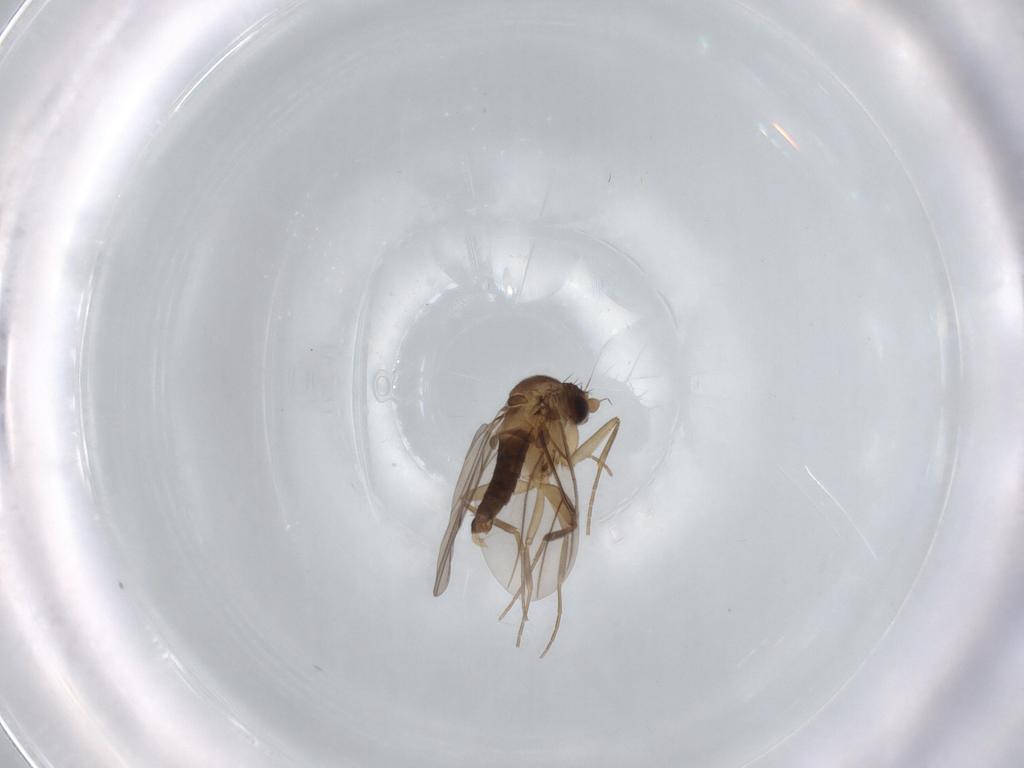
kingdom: Animalia
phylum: Arthropoda
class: Insecta
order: Diptera
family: Phoridae
